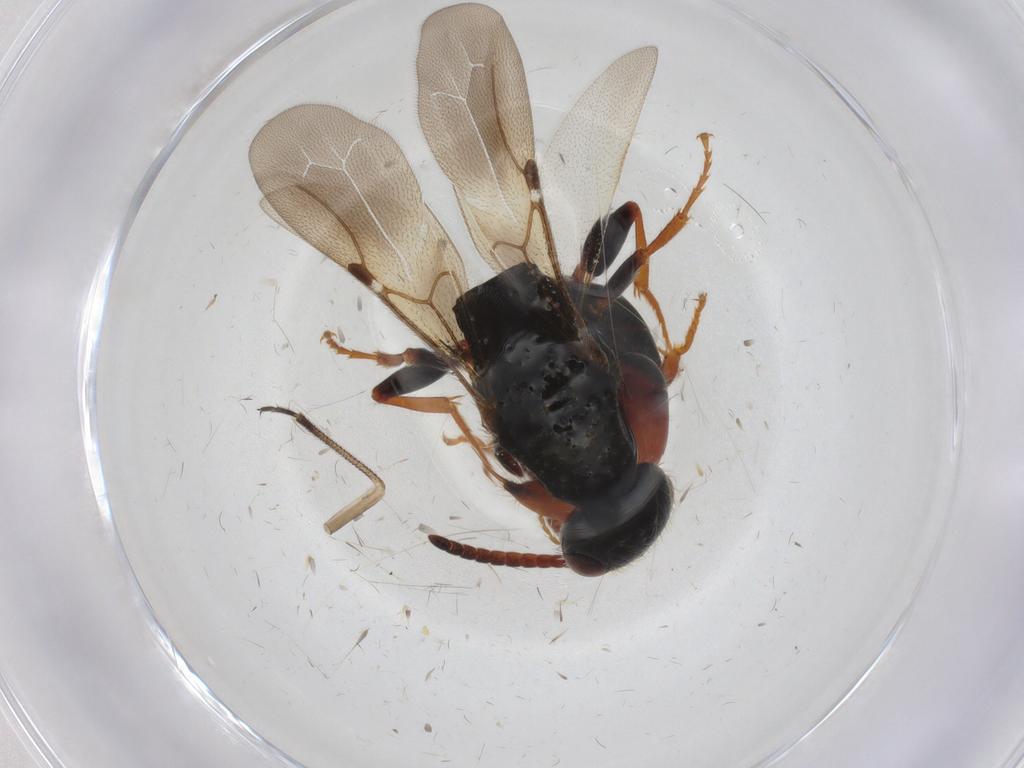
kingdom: Animalia
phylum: Arthropoda
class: Insecta
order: Hymenoptera
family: Bethylidae
